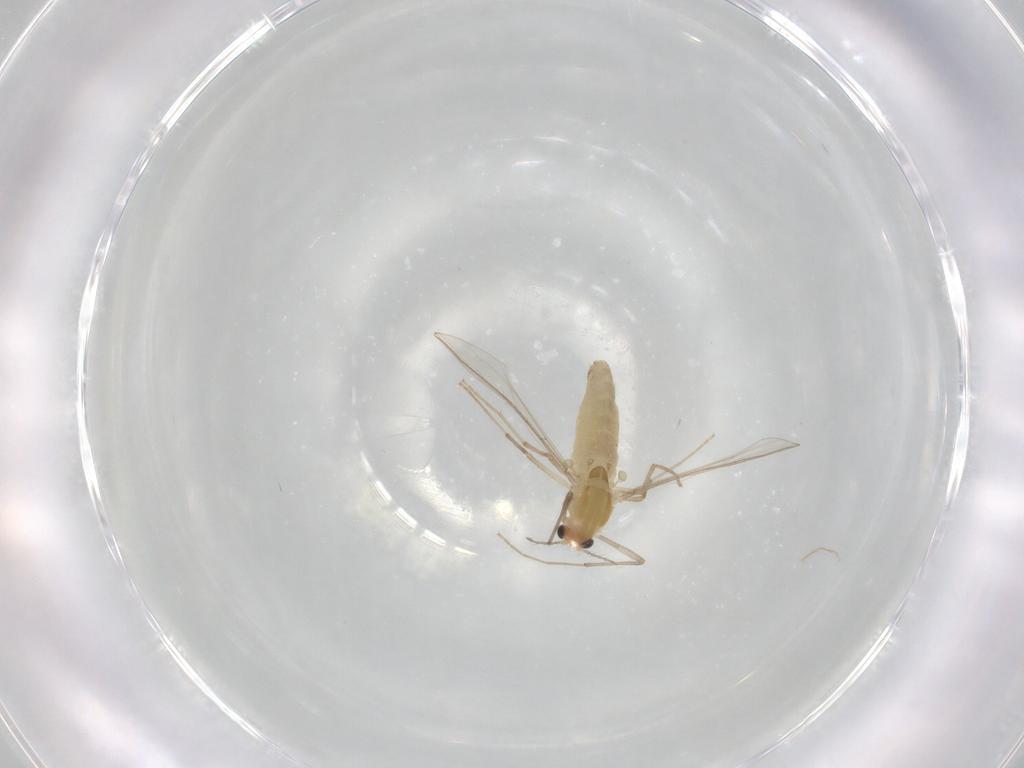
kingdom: Animalia
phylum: Arthropoda
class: Insecta
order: Diptera
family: Chironomidae
